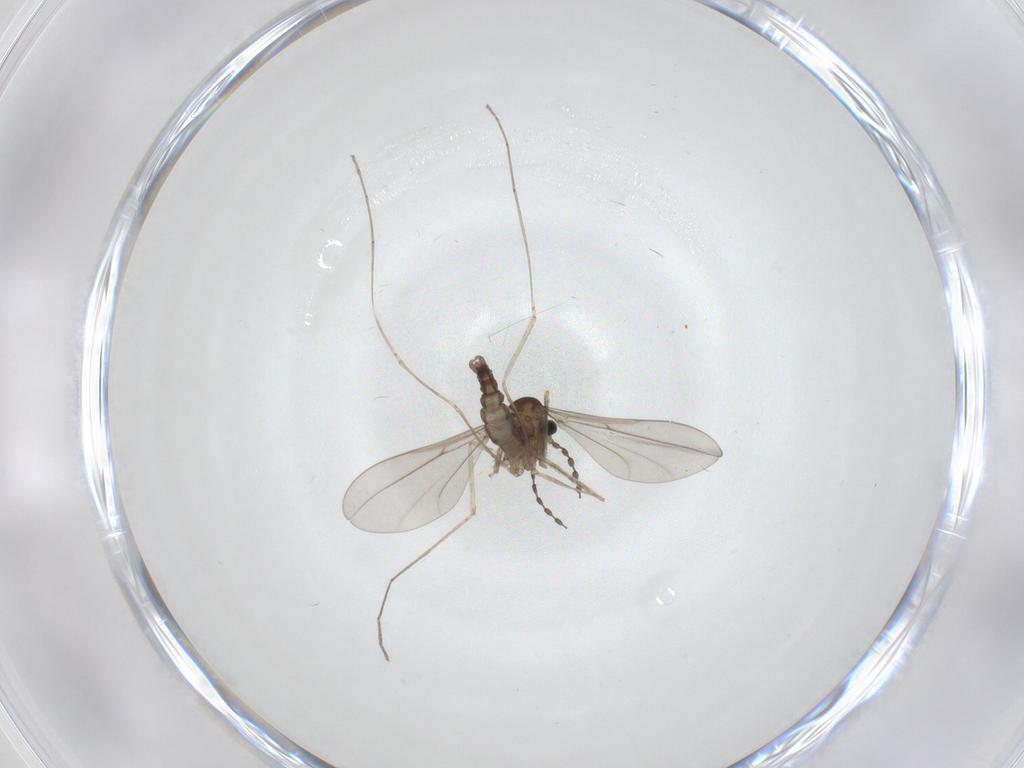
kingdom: Animalia
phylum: Arthropoda
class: Insecta
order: Diptera
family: Cecidomyiidae
